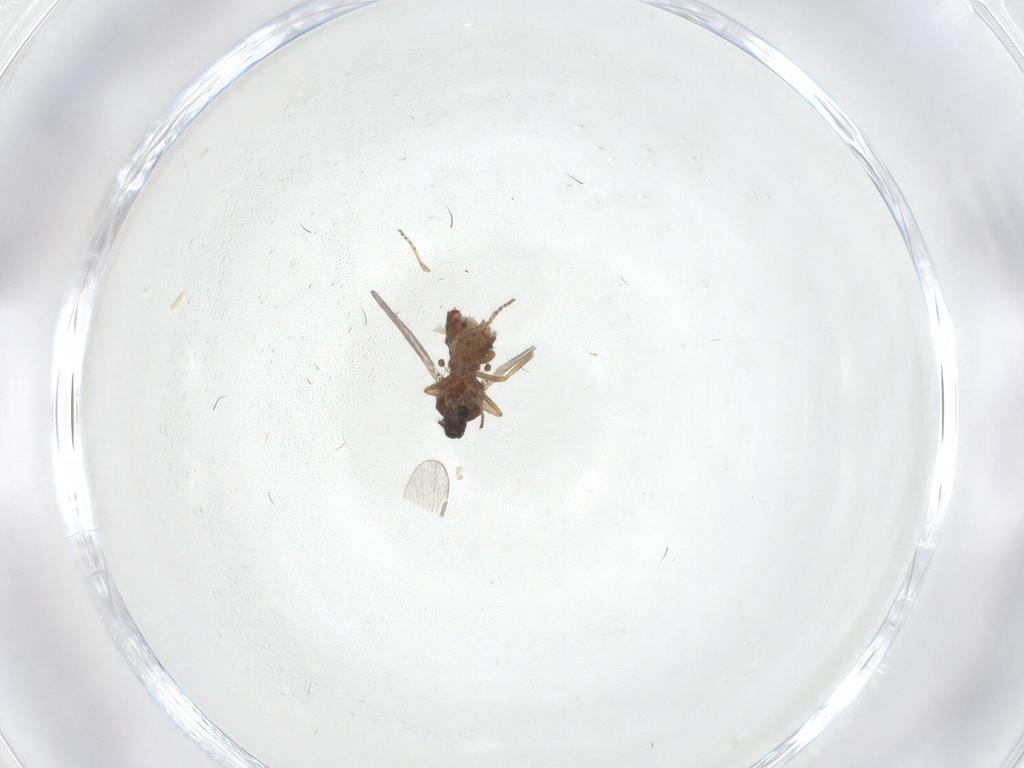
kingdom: Animalia
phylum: Arthropoda
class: Insecta
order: Diptera
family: Ceratopogonidae
